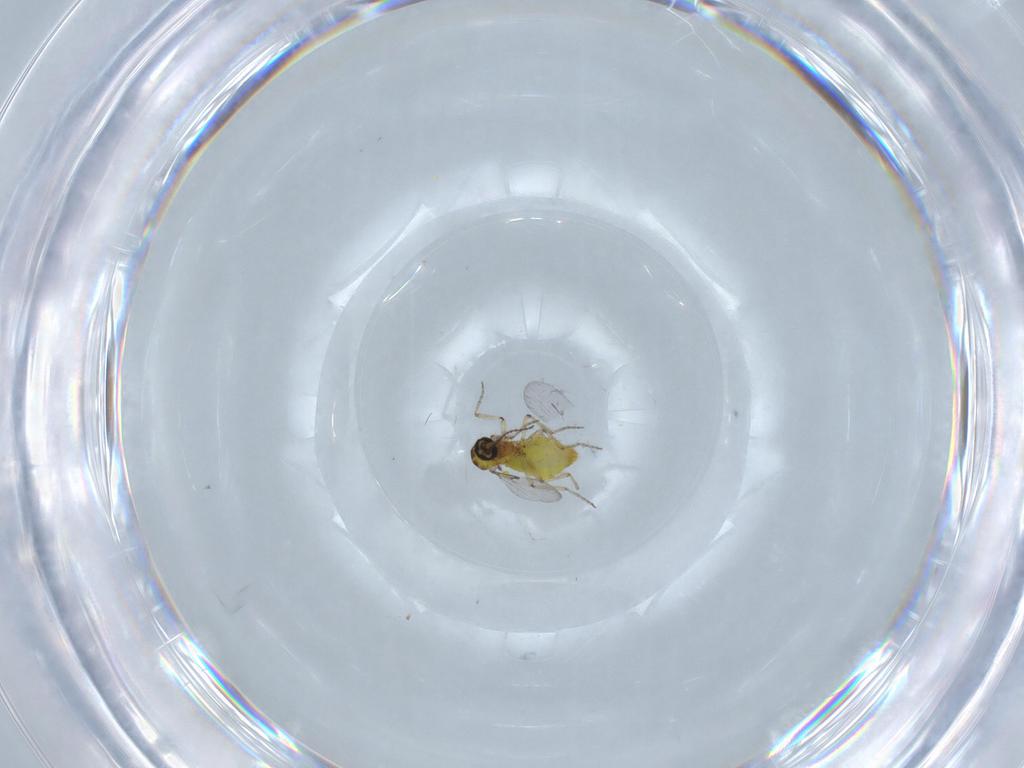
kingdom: Animalia
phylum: Arthropoda
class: Insecta
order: Diptera
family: Ceratopogonidae
